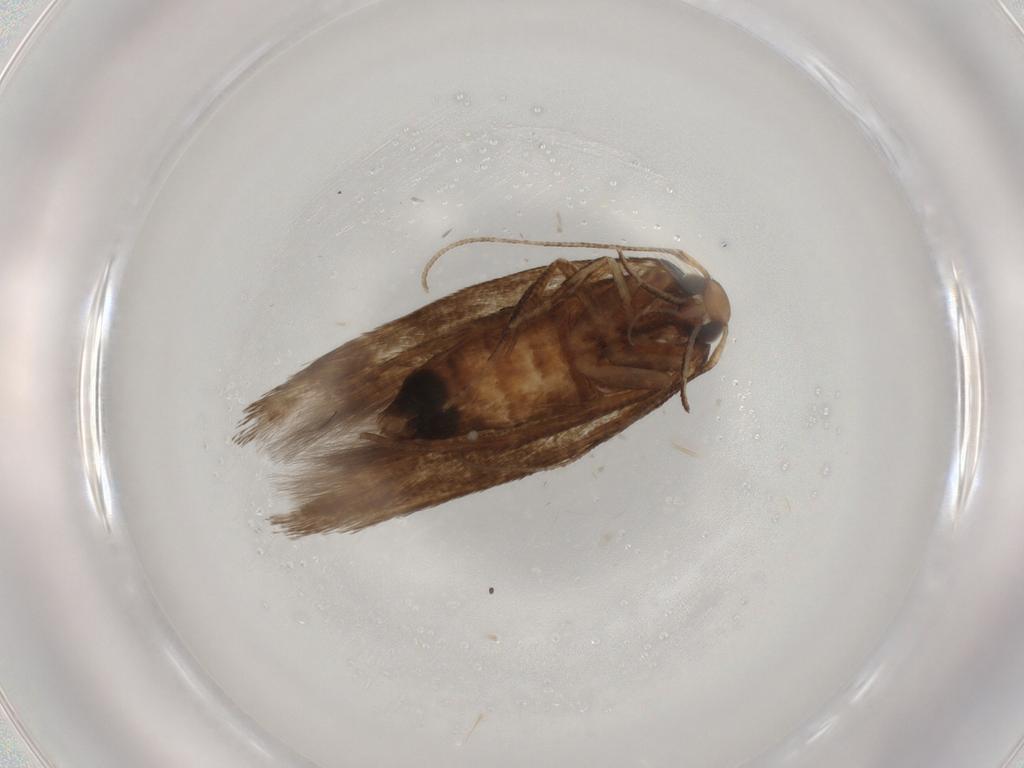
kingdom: Animalia
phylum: Arthropoda
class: Insecta
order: Lepidoptera
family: Cosmopterigidae
